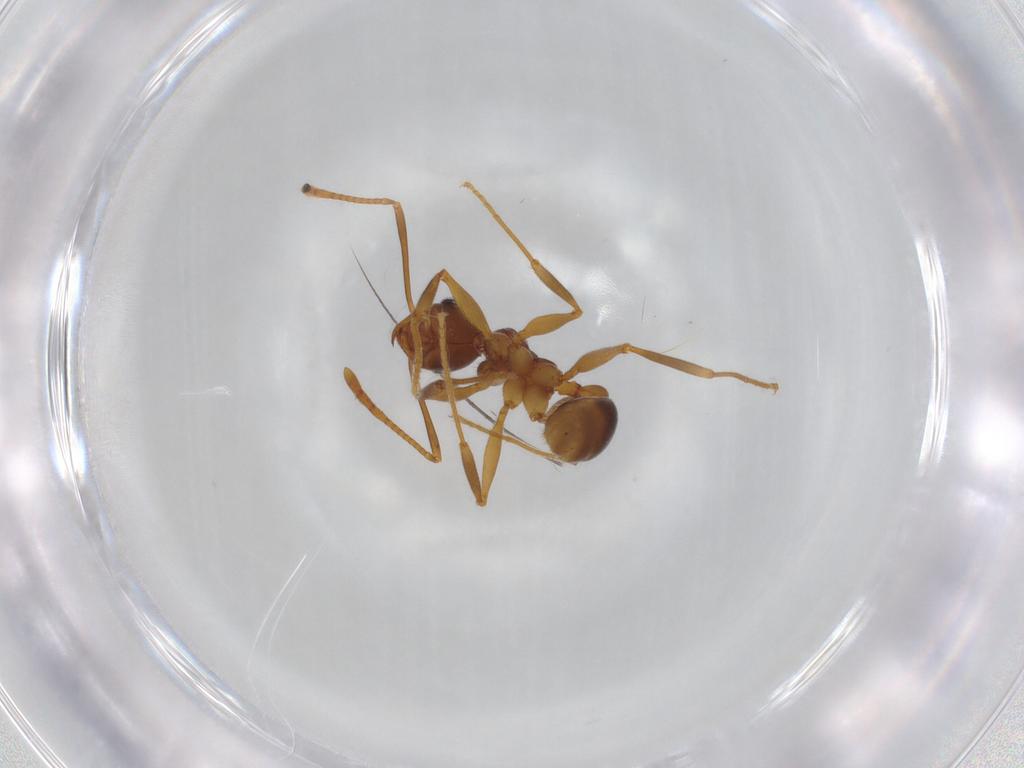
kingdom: Animalia
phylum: Arthropoda
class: Insecta
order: Hymenoptera
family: Formicidae
